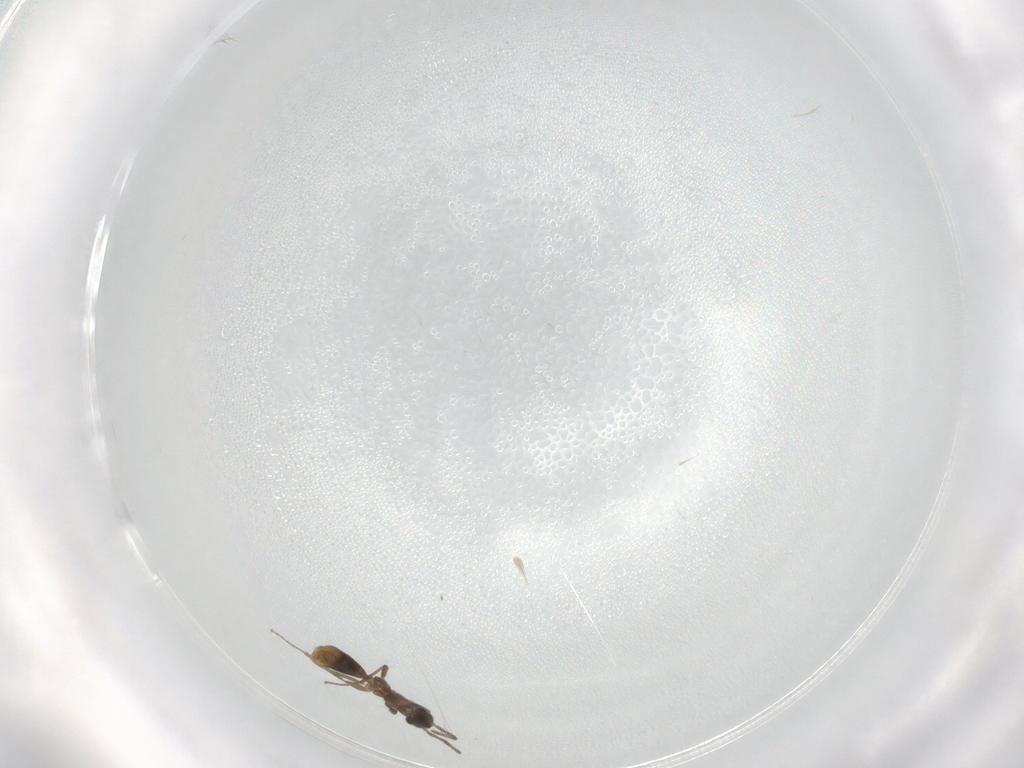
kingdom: Animalia
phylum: Arthropoda
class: Insecta
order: Hymenoptera
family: Formicidae
